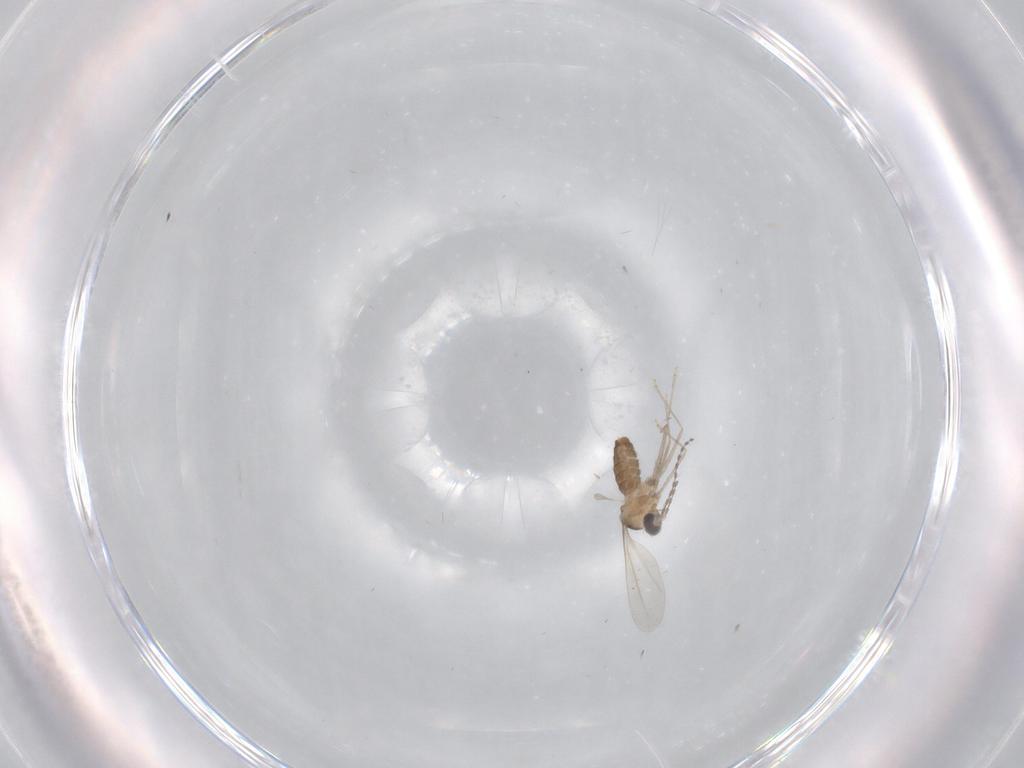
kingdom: Animalia
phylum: Arthropoda
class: Insecta
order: Diptera
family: Cecidomyiidae
